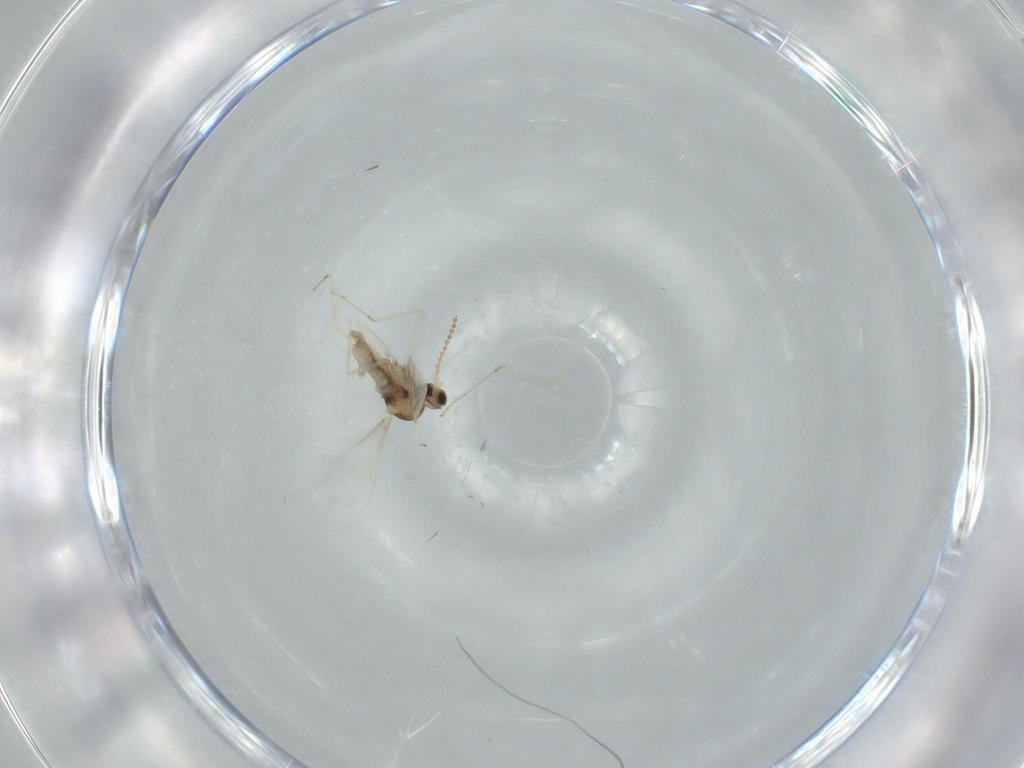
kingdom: Animalia
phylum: Arthropoda
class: Insecta
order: Diptera
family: Cecidomyiidae
